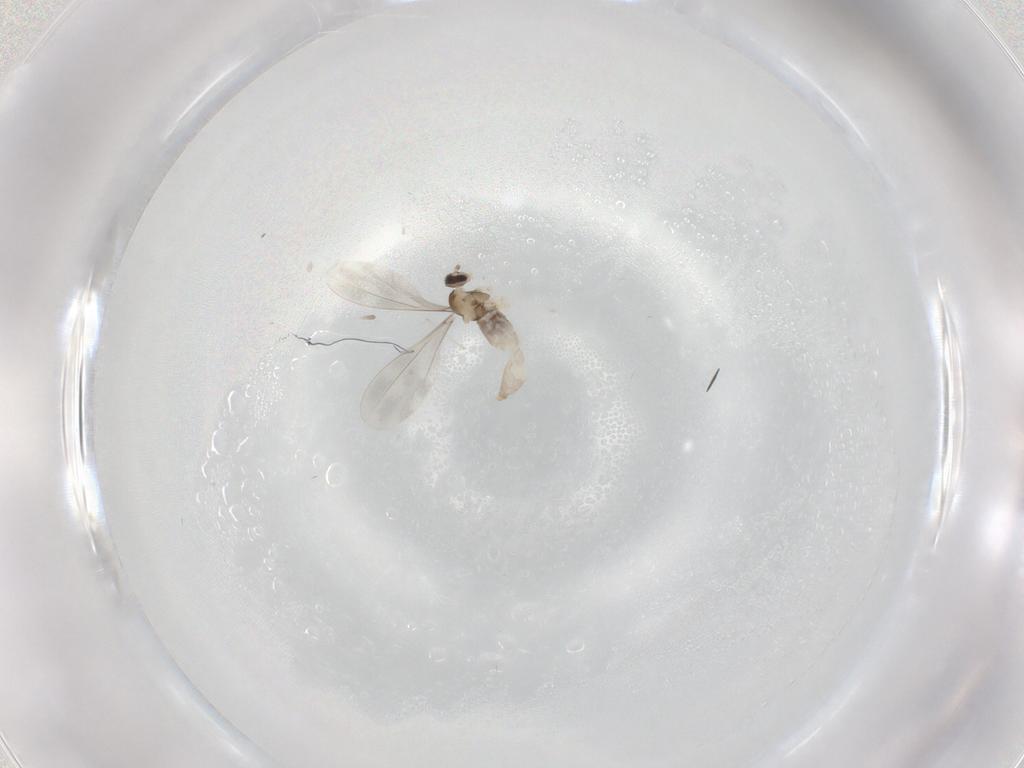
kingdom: Animalia
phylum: Arthropoda
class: Insecta
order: Diptera
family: Cecidomyiidae
